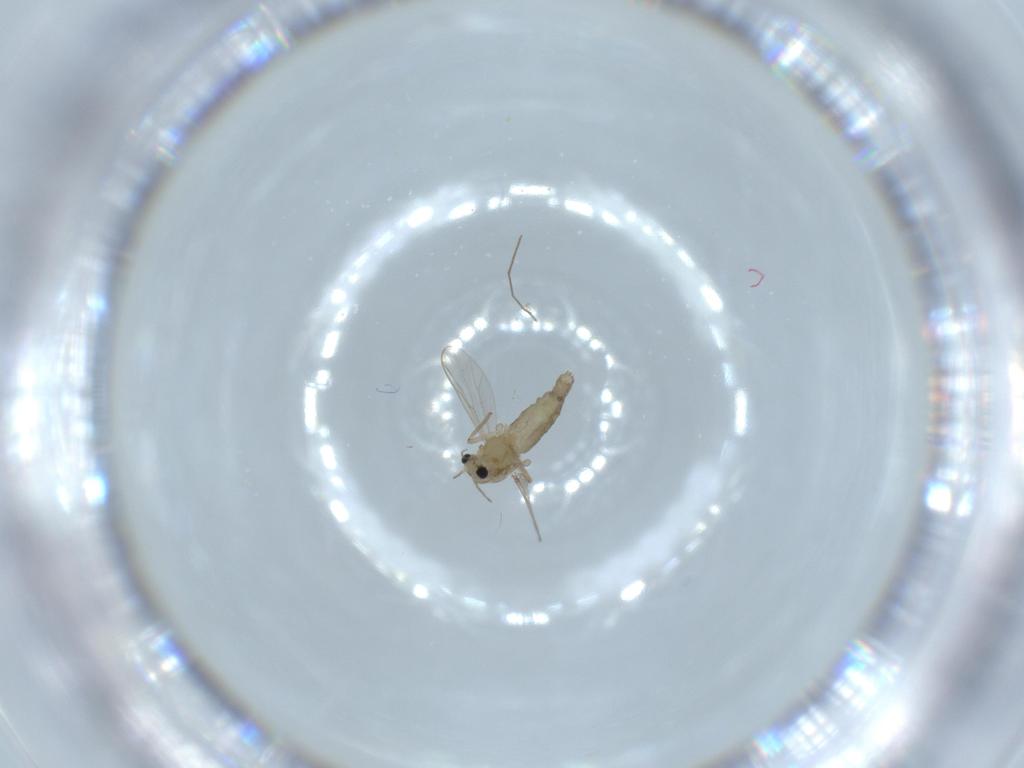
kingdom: Animalia
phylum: Arthropoda
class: Insecta
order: Diptera
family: Chironomidae
